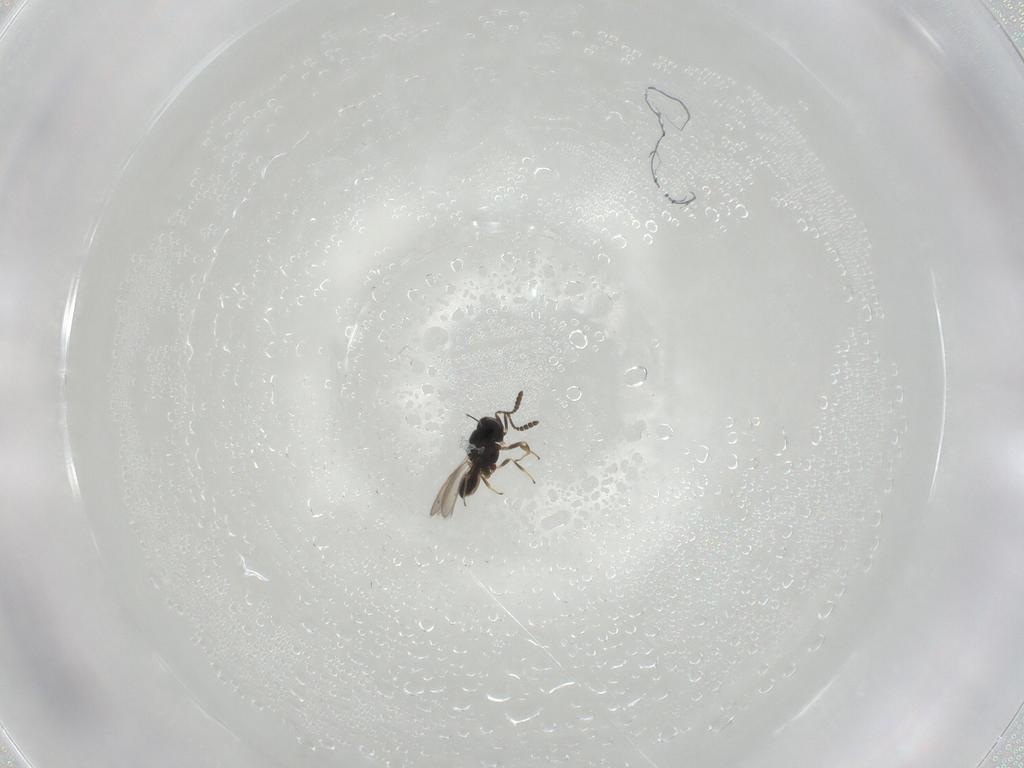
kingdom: Animalia
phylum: Arthropoda
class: Insecta
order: Hymenoptera
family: Scelionidae
